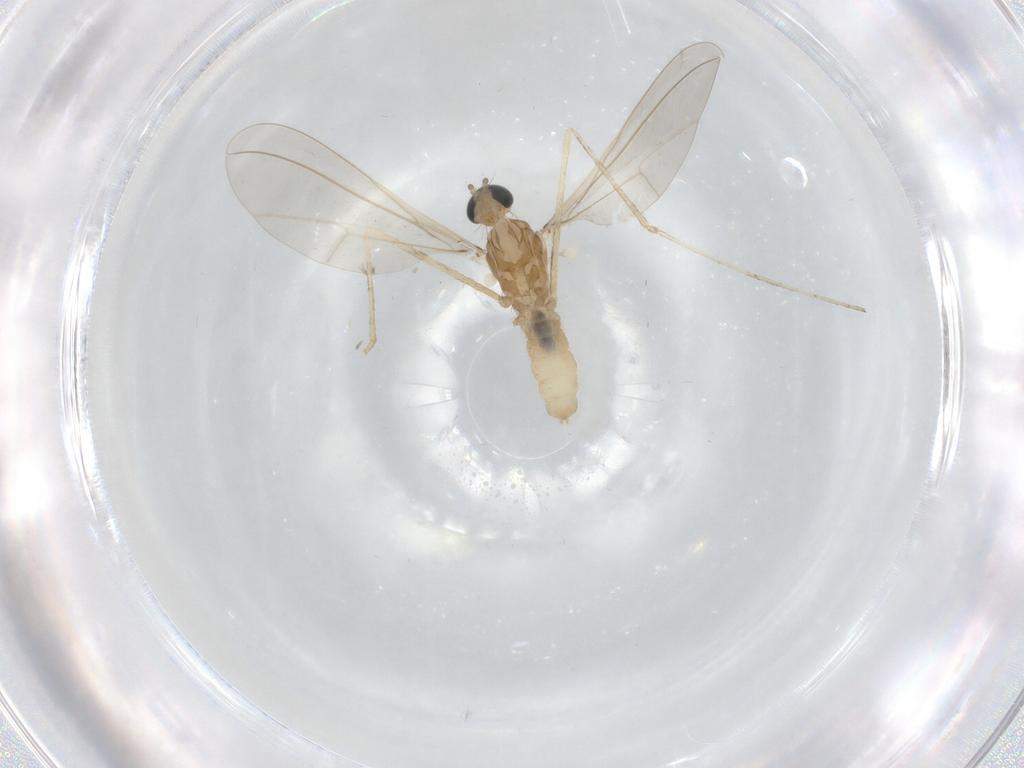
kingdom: Animalia
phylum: Arthropoda
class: Insecta
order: Diptera
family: Cecidomyiidae
